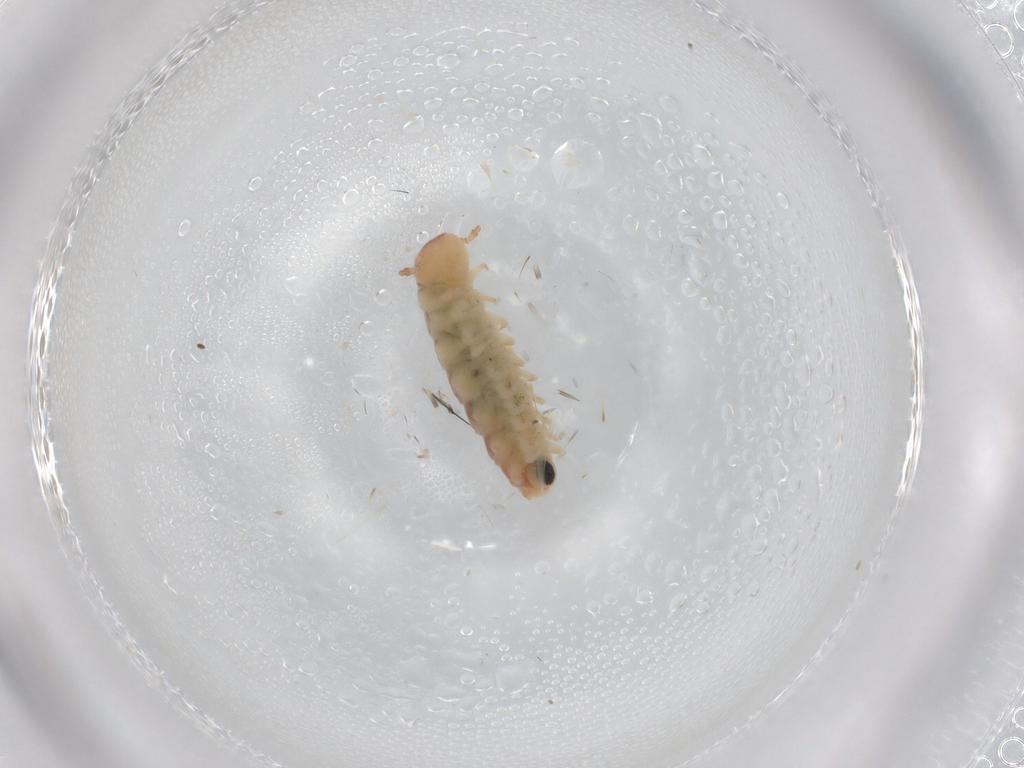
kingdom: Animalia
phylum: Arthropoda
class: Diplopoda
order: Polyxenida
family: Polyxenidae
